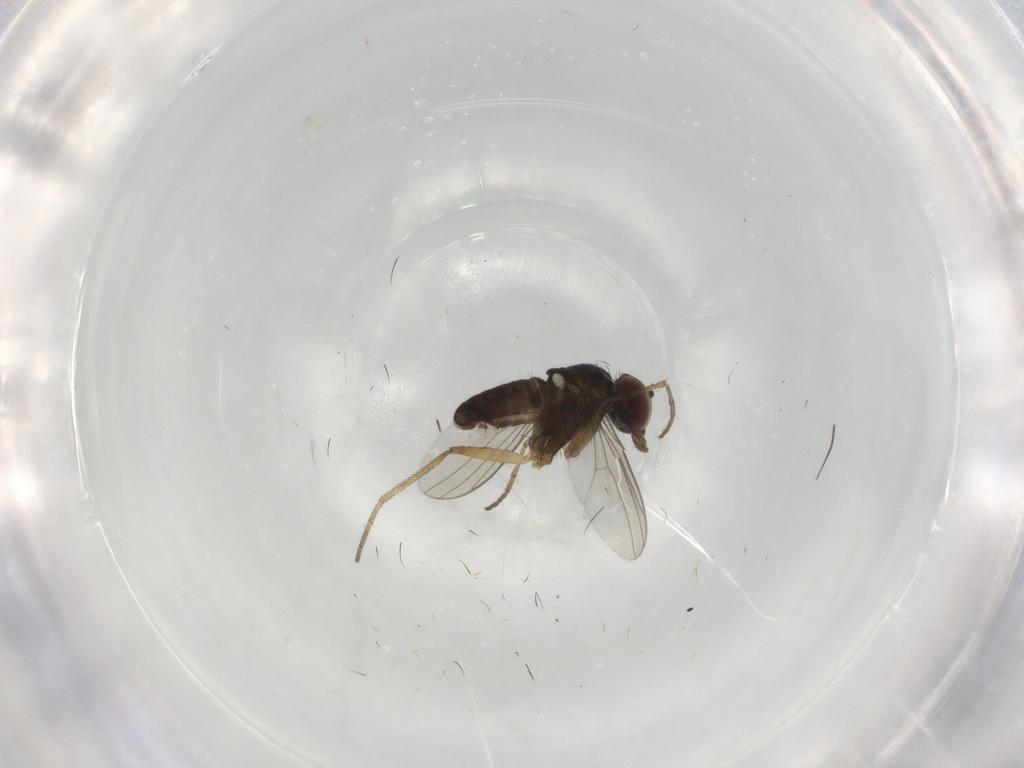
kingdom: Animalia
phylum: Arthropoda
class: Insecta
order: Diptera
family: Dolichopodidae
